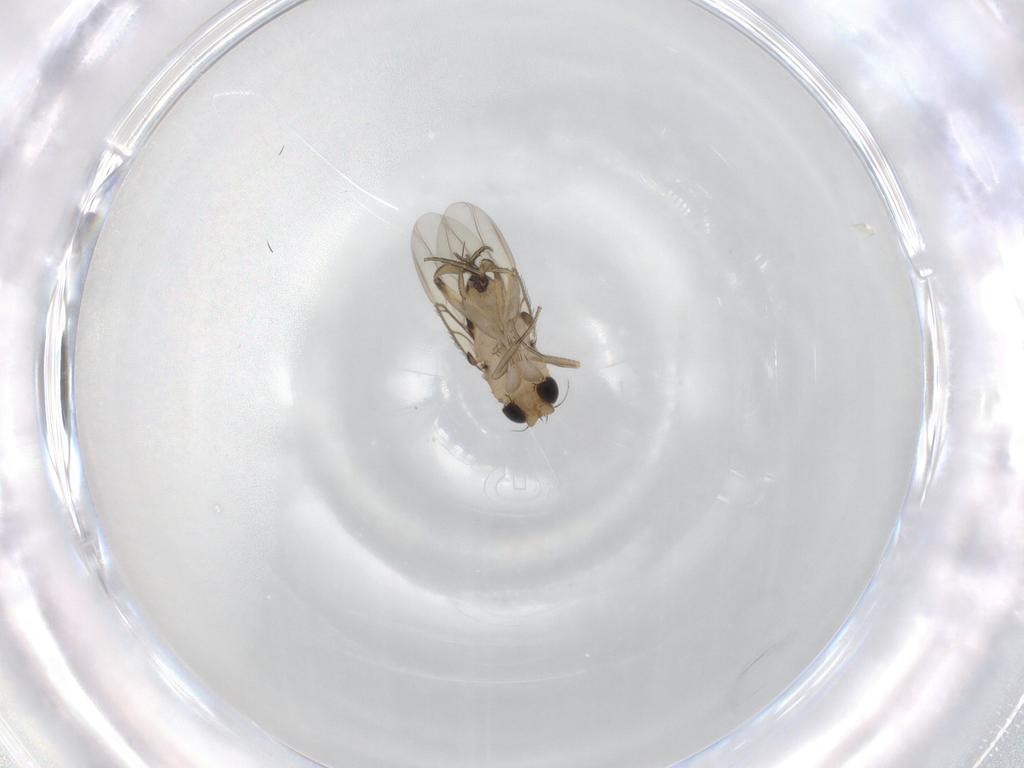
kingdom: Animalia
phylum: Arthropoda
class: Insecta
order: Diptera
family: Phoridae
